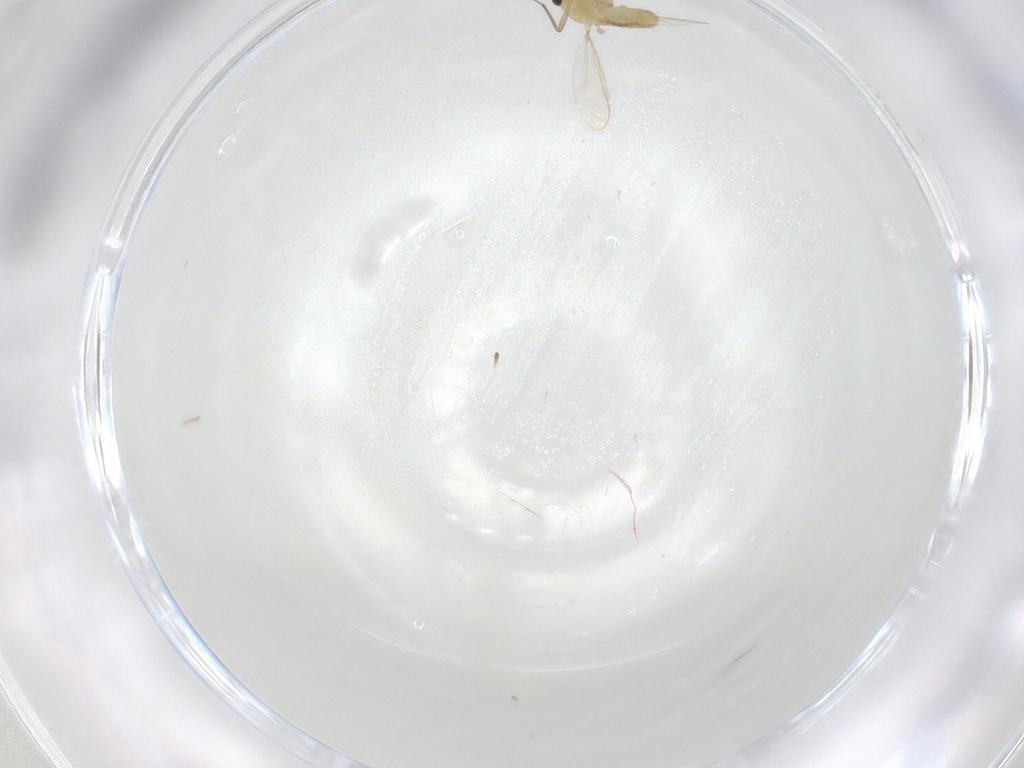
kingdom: Animalia
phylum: Arthropoda
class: Insecta
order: Diptera
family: Chironomidae
